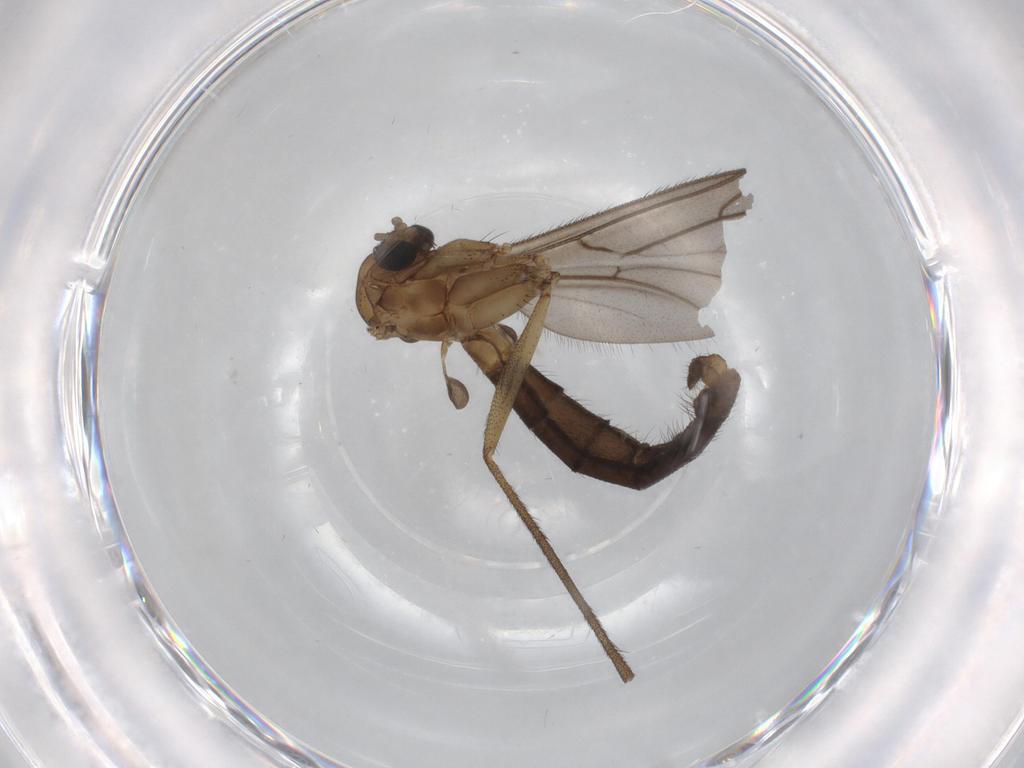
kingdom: Animalia
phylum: Arthropoda
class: Insecta
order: Diptera
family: Cecidomyiidae
